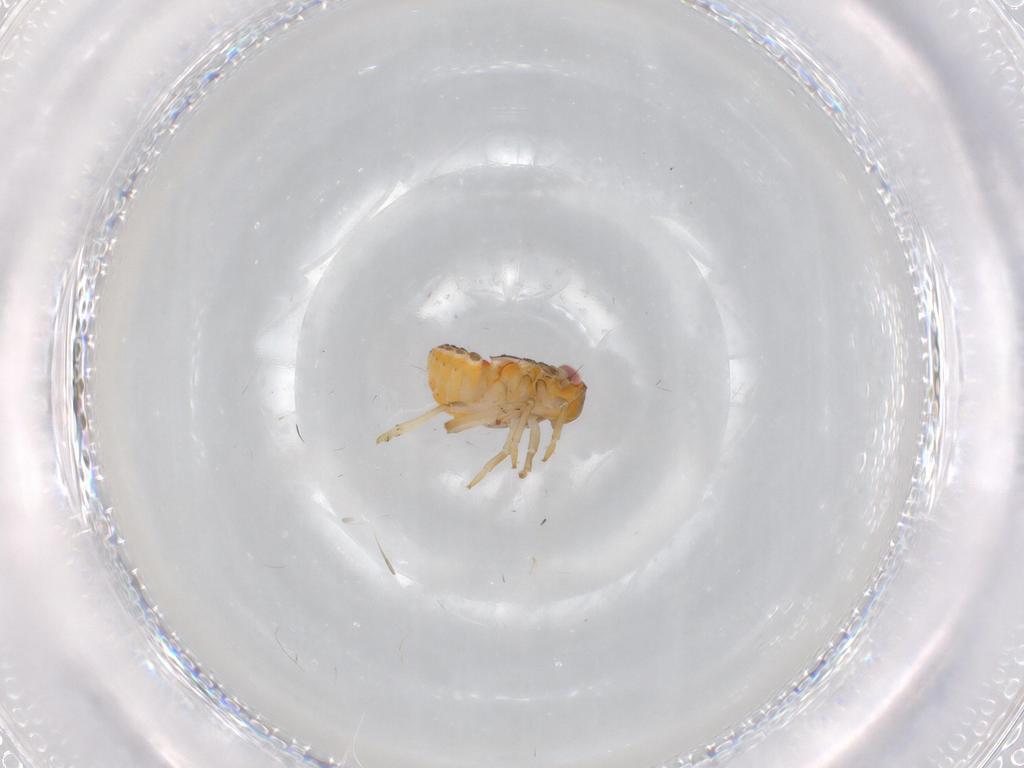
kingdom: Animalia
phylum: Arthropoda
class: Insecta
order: Hemiptera
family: Issidae
